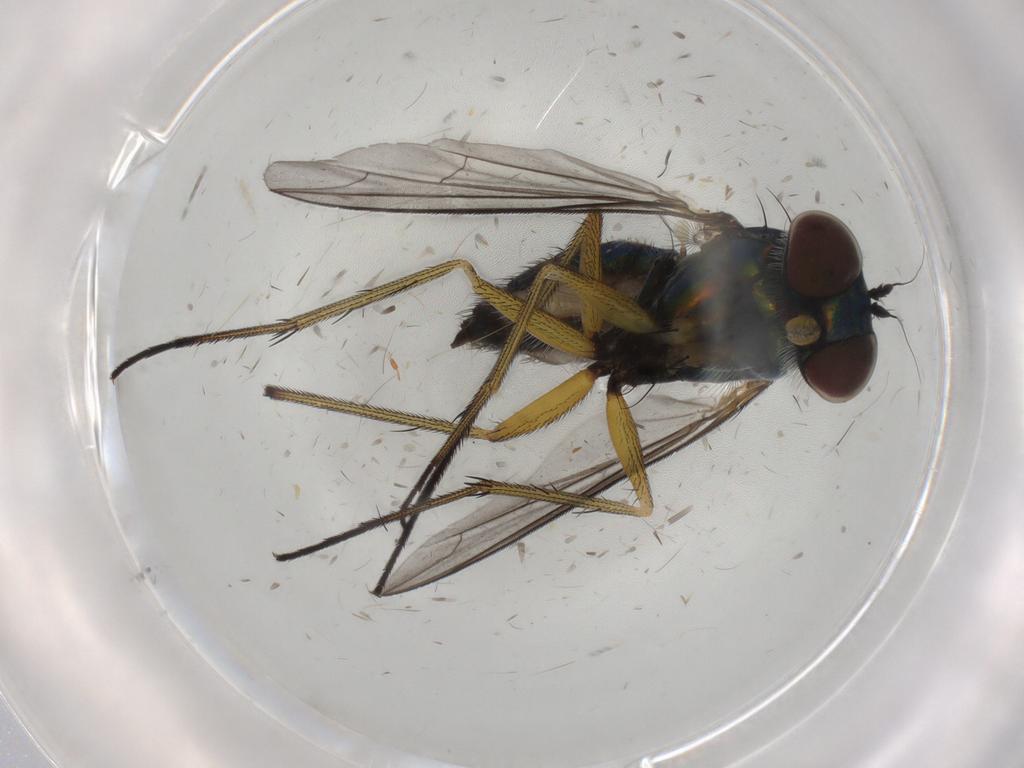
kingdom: Animalia
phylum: Arthropoda
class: Insecta
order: Diptera
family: Dolichopodidae
